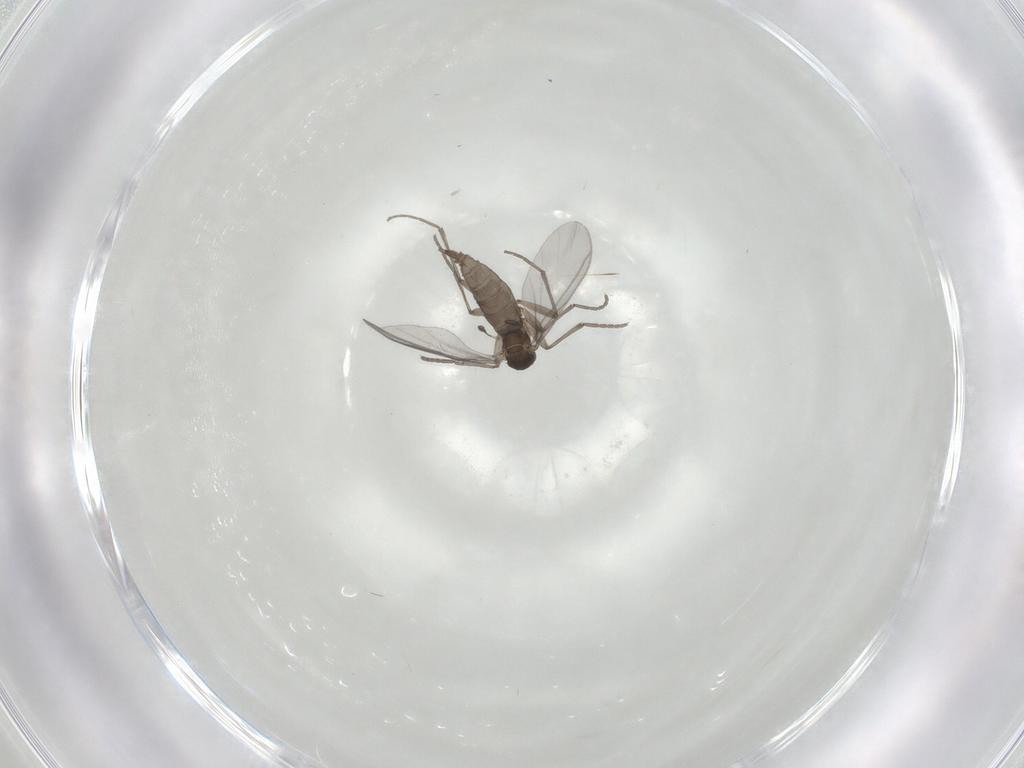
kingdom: Animalia
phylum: Arthropoda
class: Insecta
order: Diptera
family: Sciaridae
